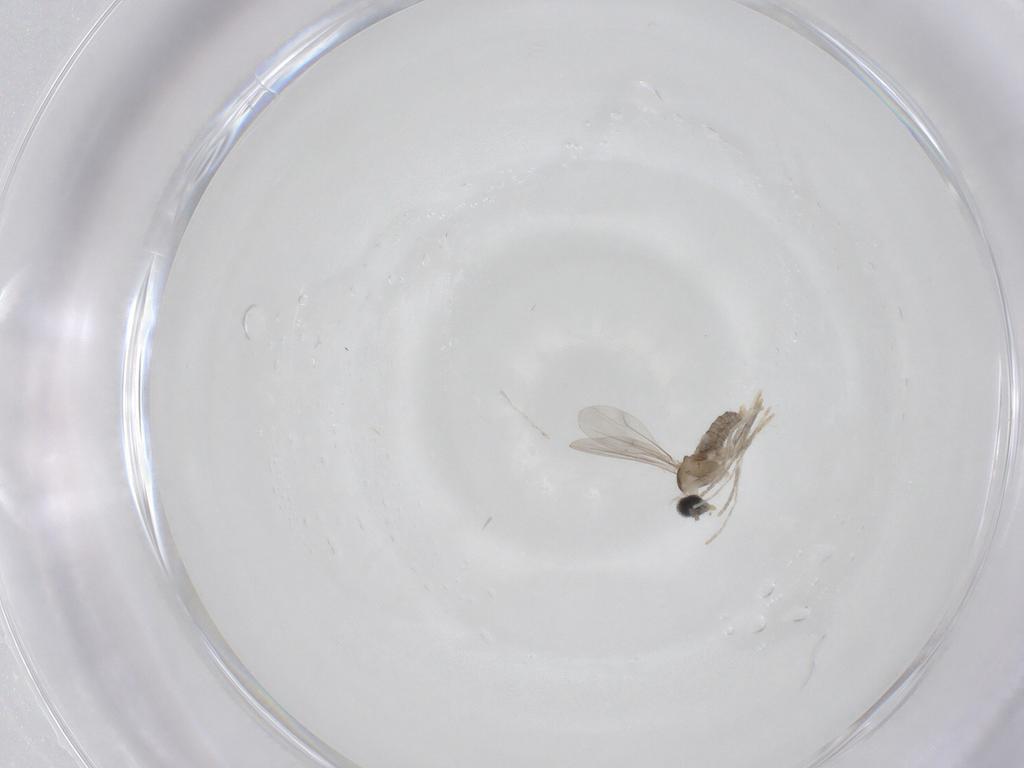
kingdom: Animalia
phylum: Arthropoda
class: Insecta
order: Diptera
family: Cecidomyiidae
